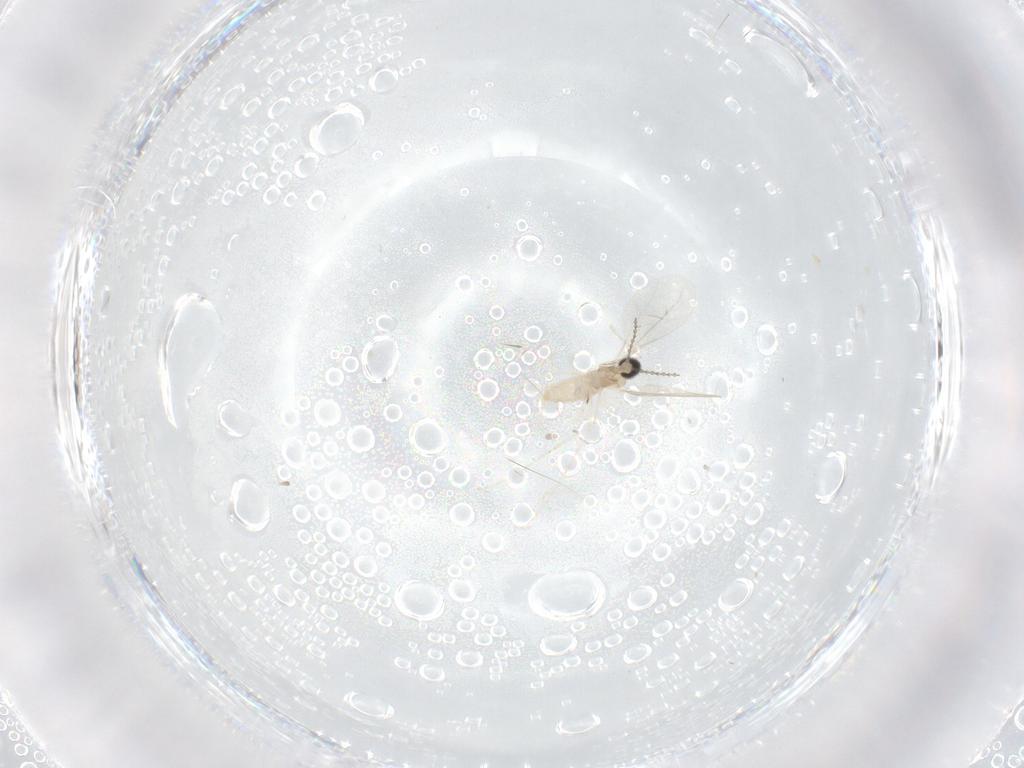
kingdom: Animalia
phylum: Arthropoda
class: Insecta
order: Diptera
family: Cecidomyiidae
